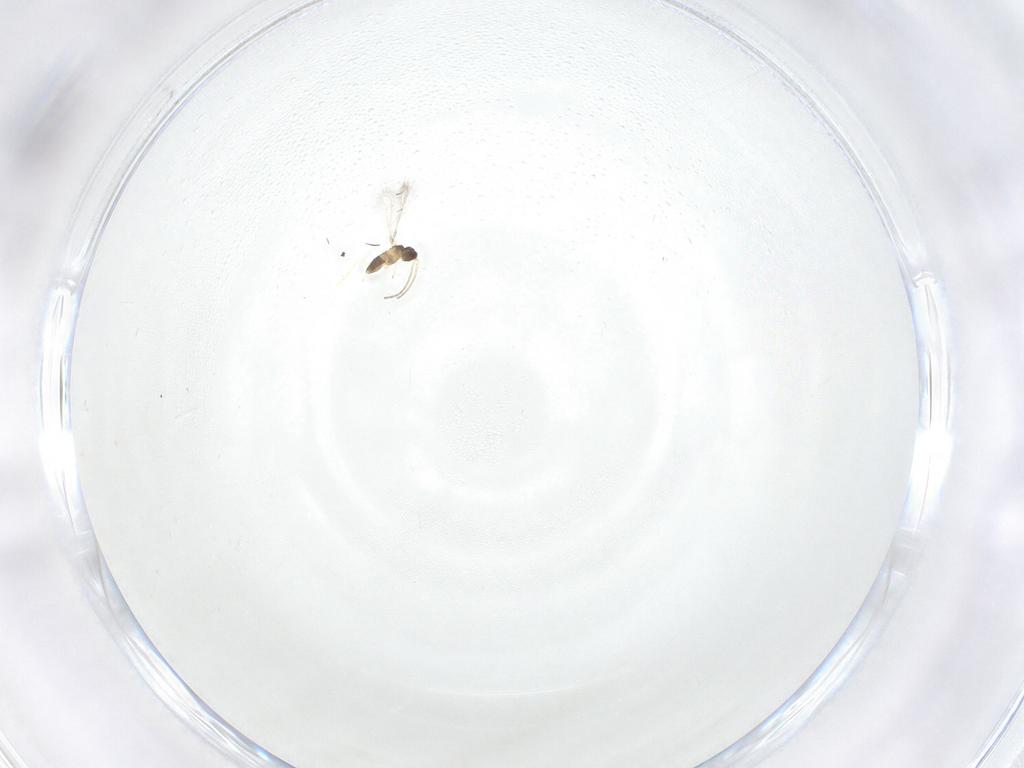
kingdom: Animalia
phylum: Arthropoda
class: Insecta
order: Hymenoptera
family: Mymaridae
